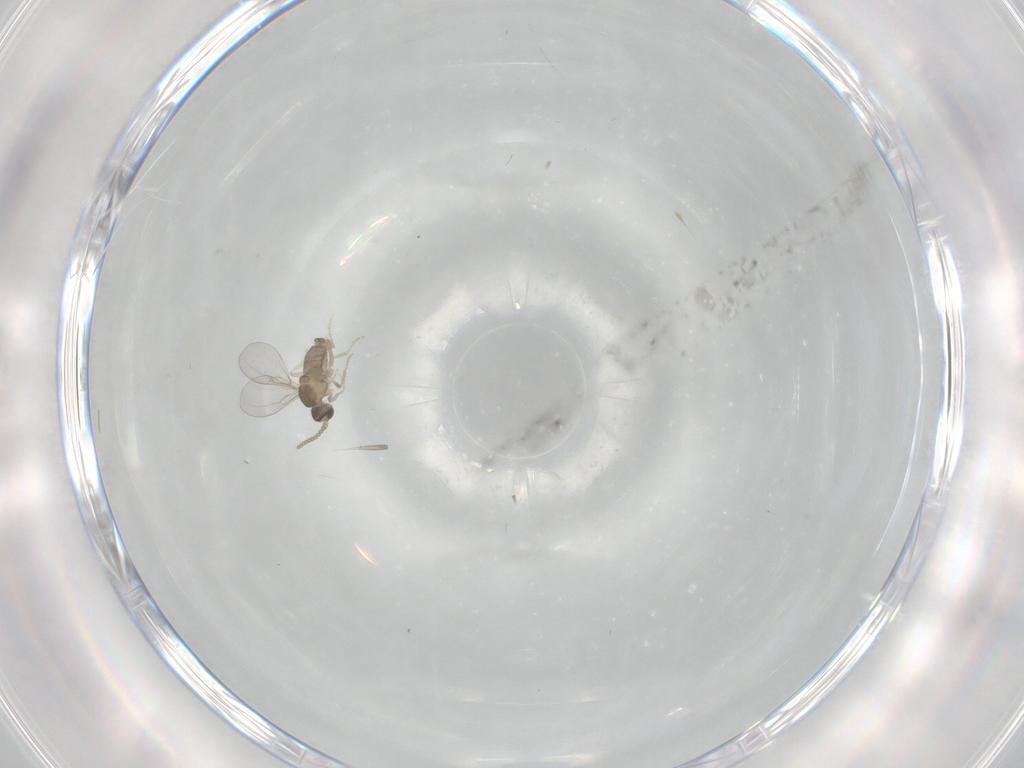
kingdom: Animalia
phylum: Arthropoda
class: Insecta
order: Diptera
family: Cecidomyiidae
